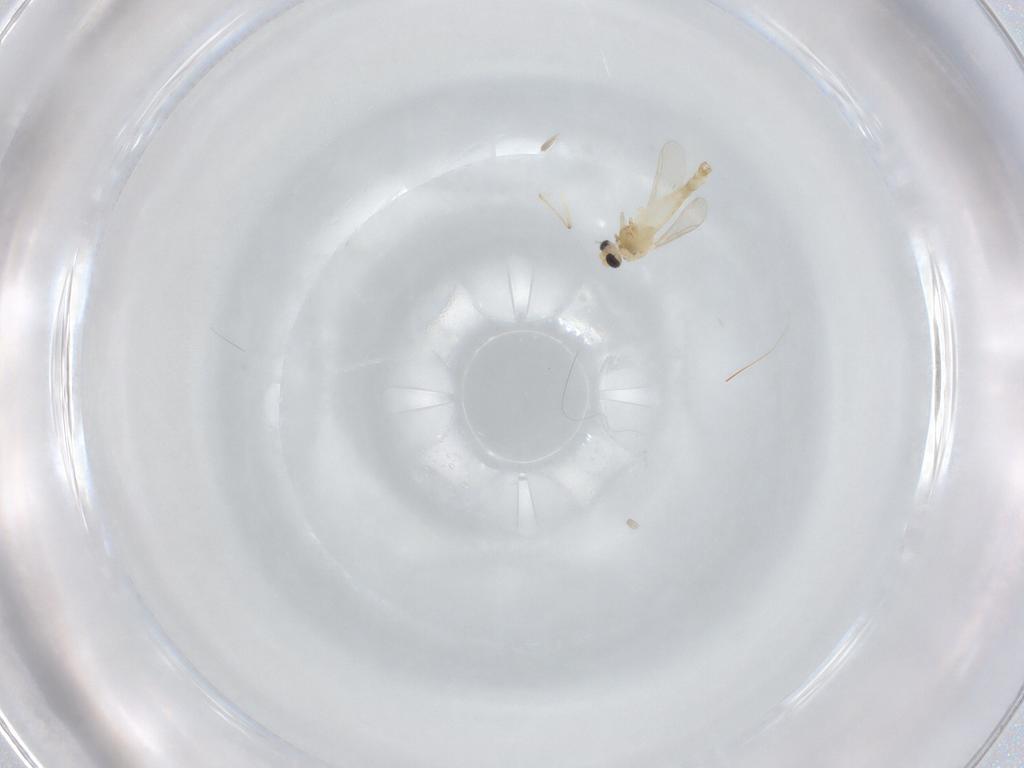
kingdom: Animalia
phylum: Arthropoda
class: Insecta
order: Diptera
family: Chironomidae
